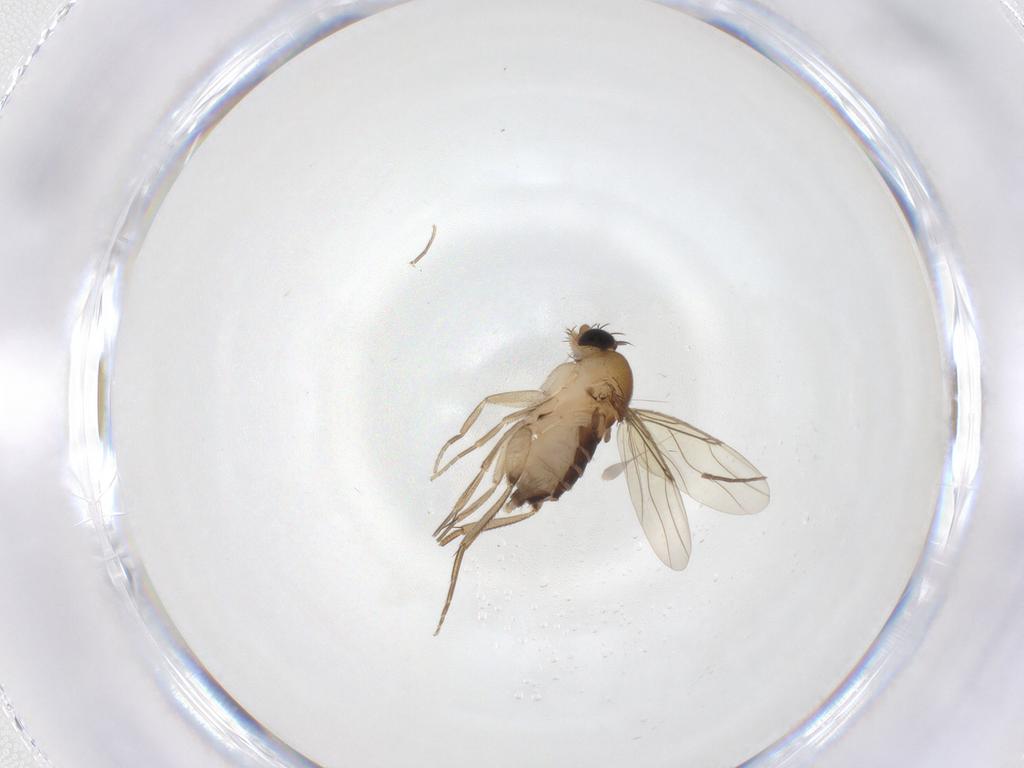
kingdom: Animalia
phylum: Arthropoda
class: Insecta
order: Diptera
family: Phoridae
